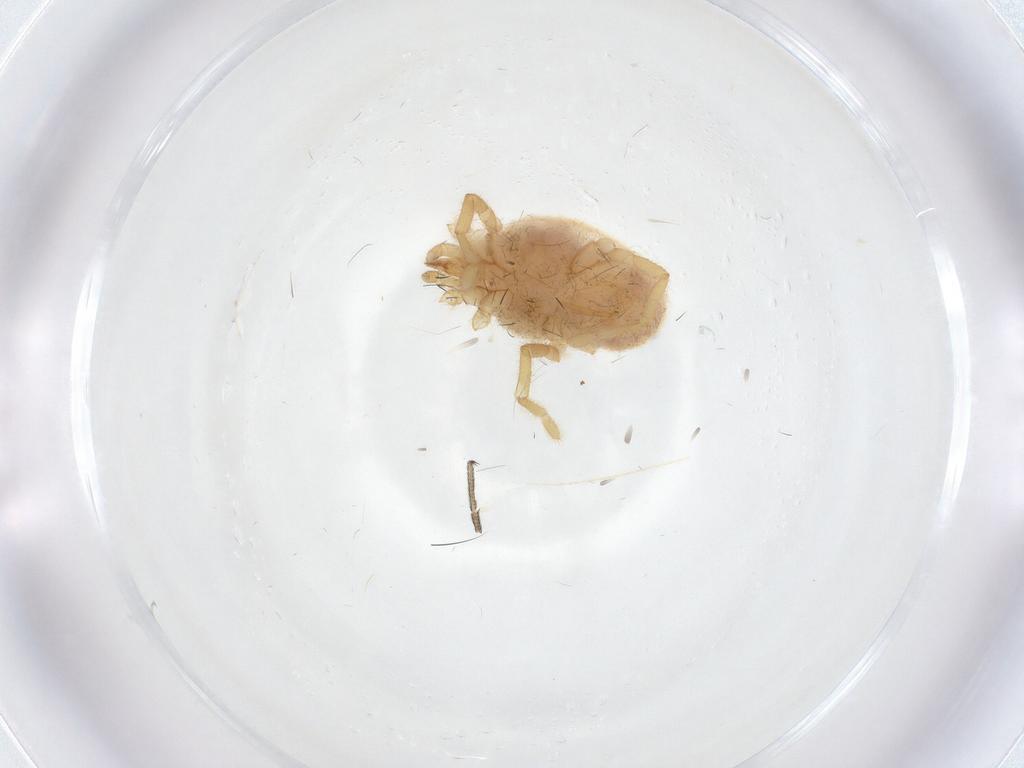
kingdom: Animalia
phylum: Arthropoda
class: Arachnida
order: Trombidiformes
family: Erythraeidae
